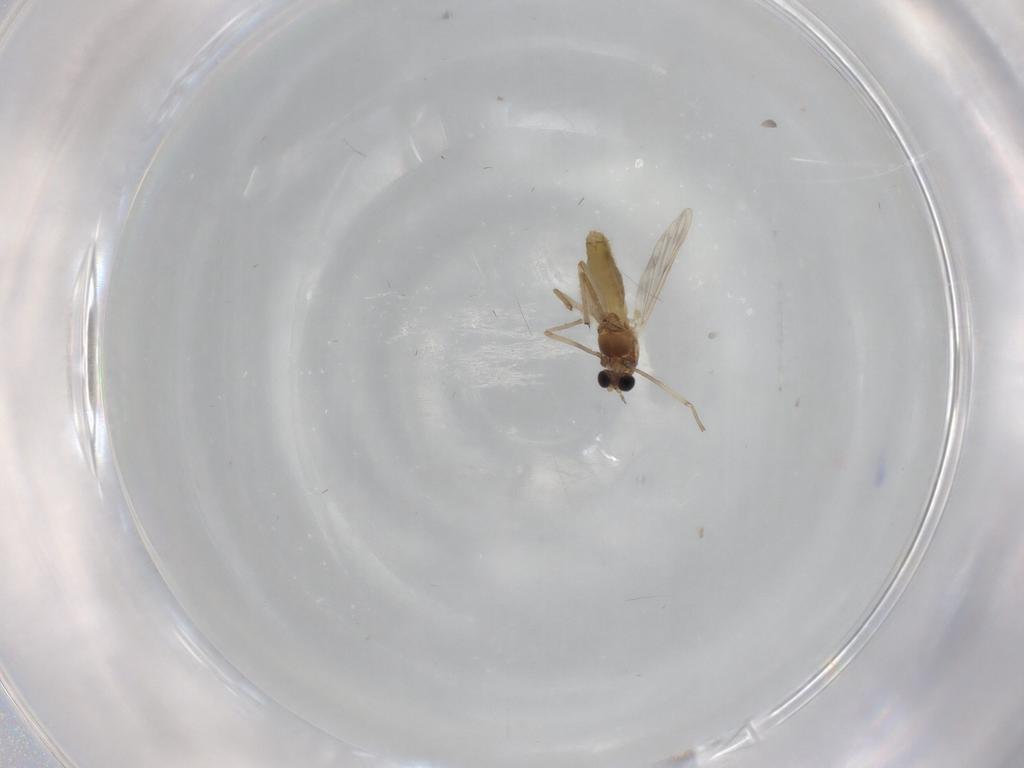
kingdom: Animalia
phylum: Arthropoda
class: Insecta
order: Diptera
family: Chironomidae
